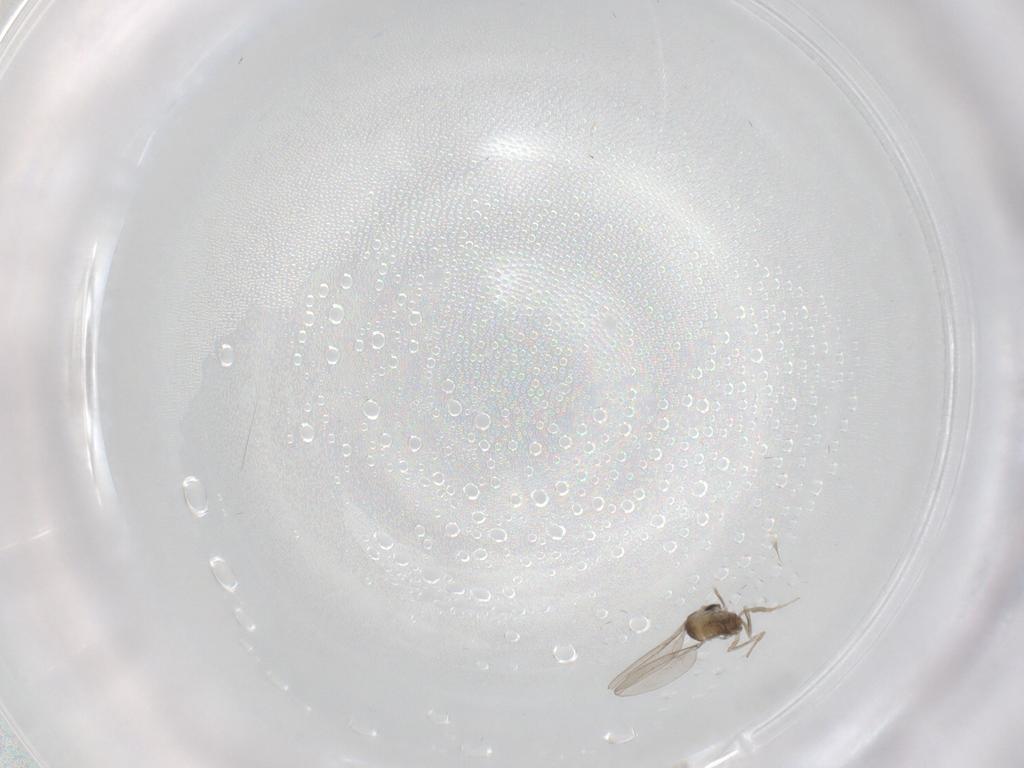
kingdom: Animalia
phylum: Arthropoda
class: Insecta
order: Diptera
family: Cecidomyiidae
